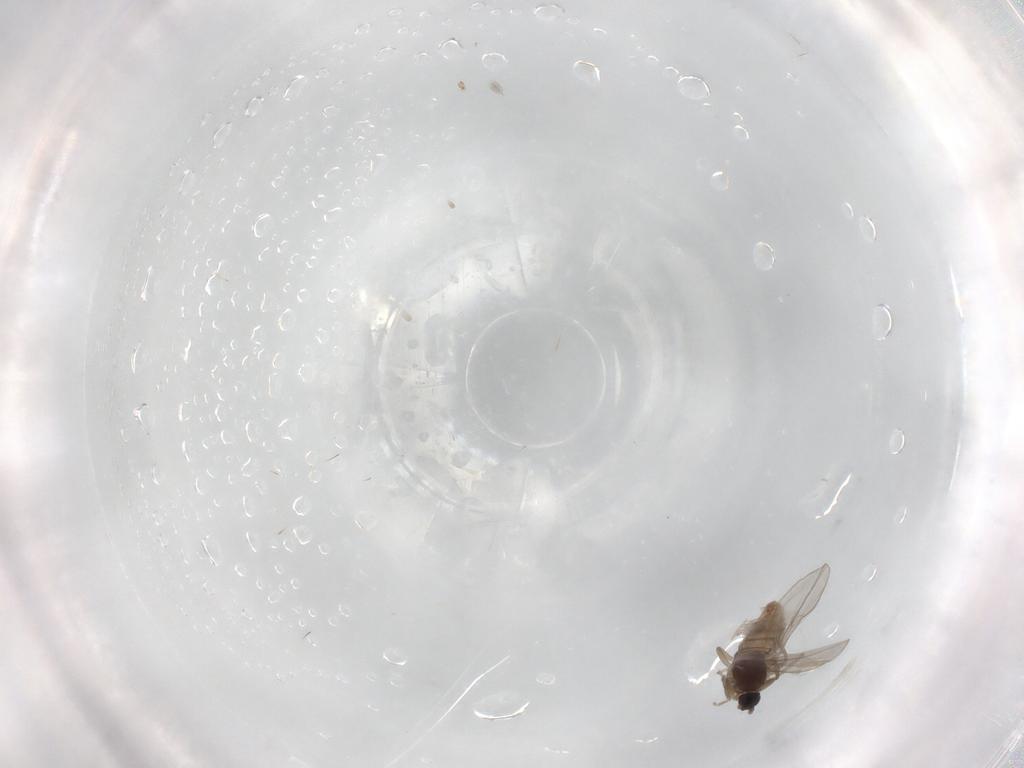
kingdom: Animalia
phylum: Arthropoda
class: Insecta
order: Diptera
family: Cecidomyiidae
